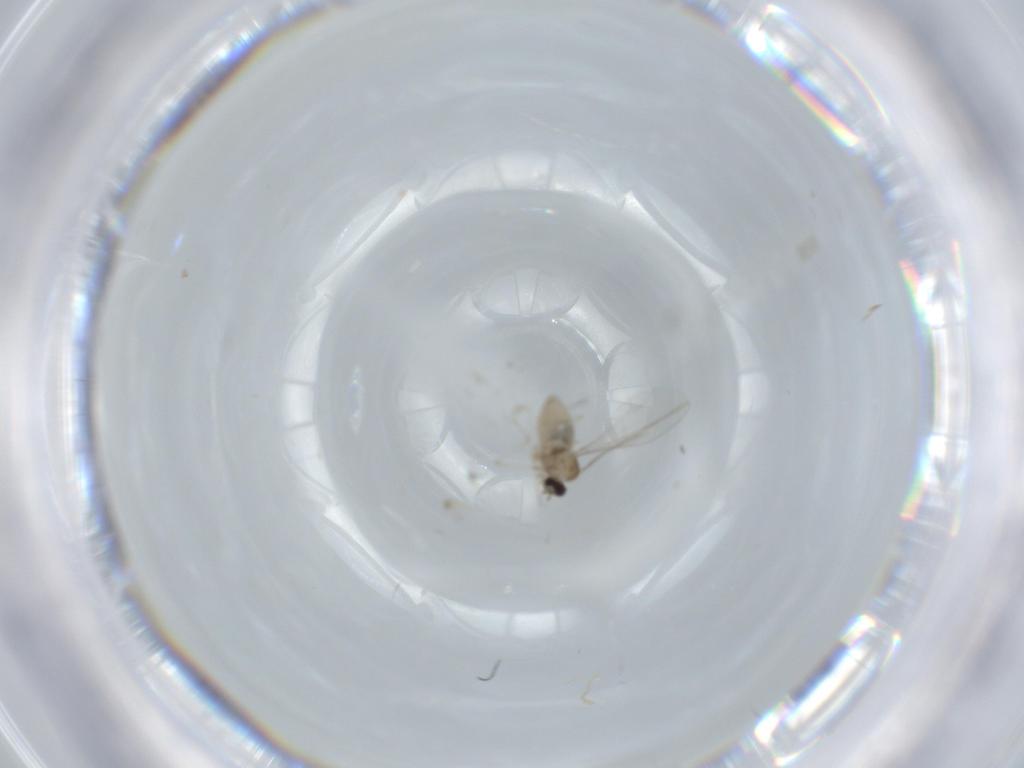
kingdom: Animalia
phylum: Arthropoda
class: Insecta
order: Diptera
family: Cecidomyiidae
